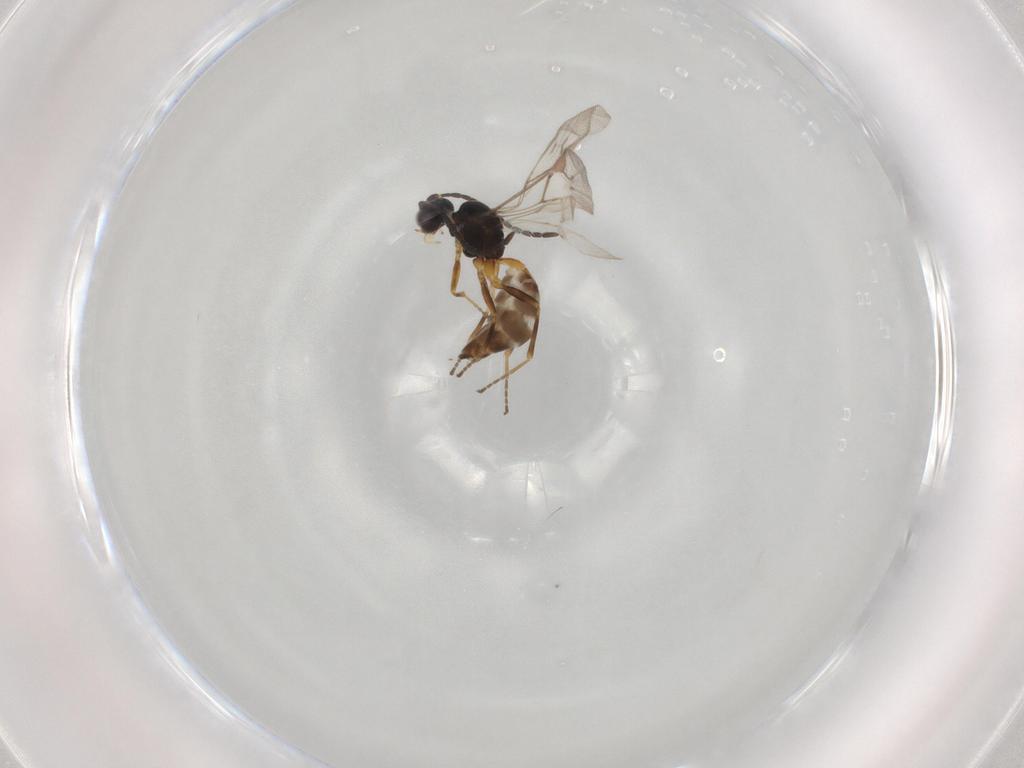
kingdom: Animalia
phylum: Arthropoda
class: Insecta
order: Hymenoptera
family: Braconidae
